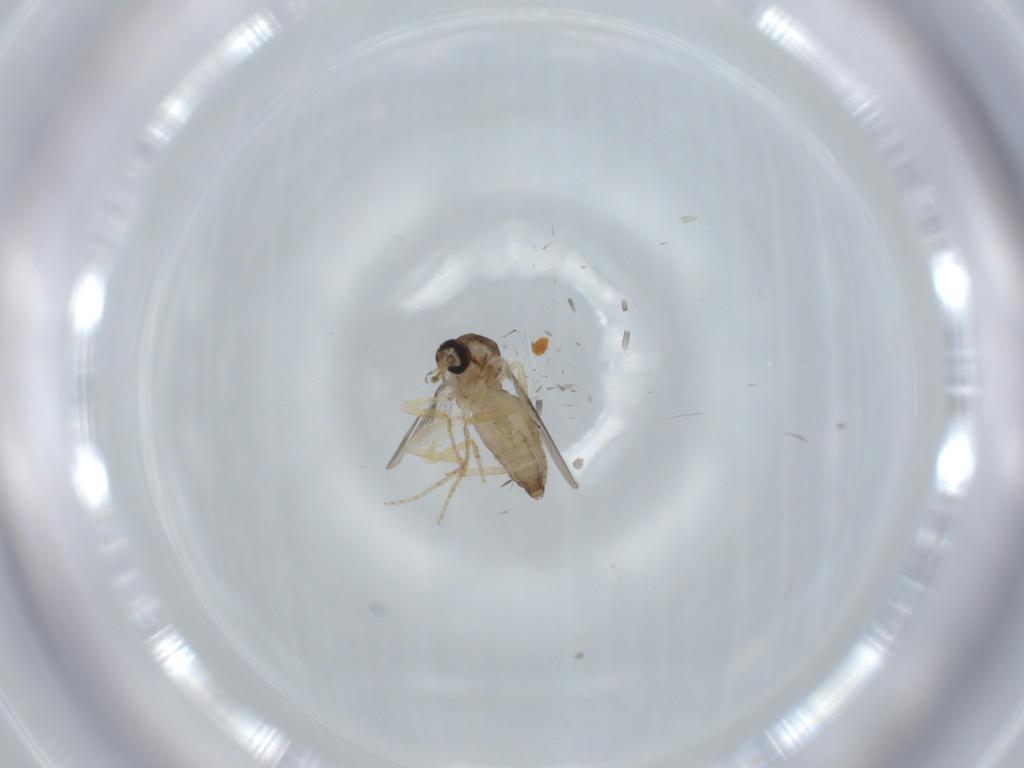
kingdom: Animalia
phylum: Arthropoda
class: Insecta
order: Diptera
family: Ceratopogonidae
